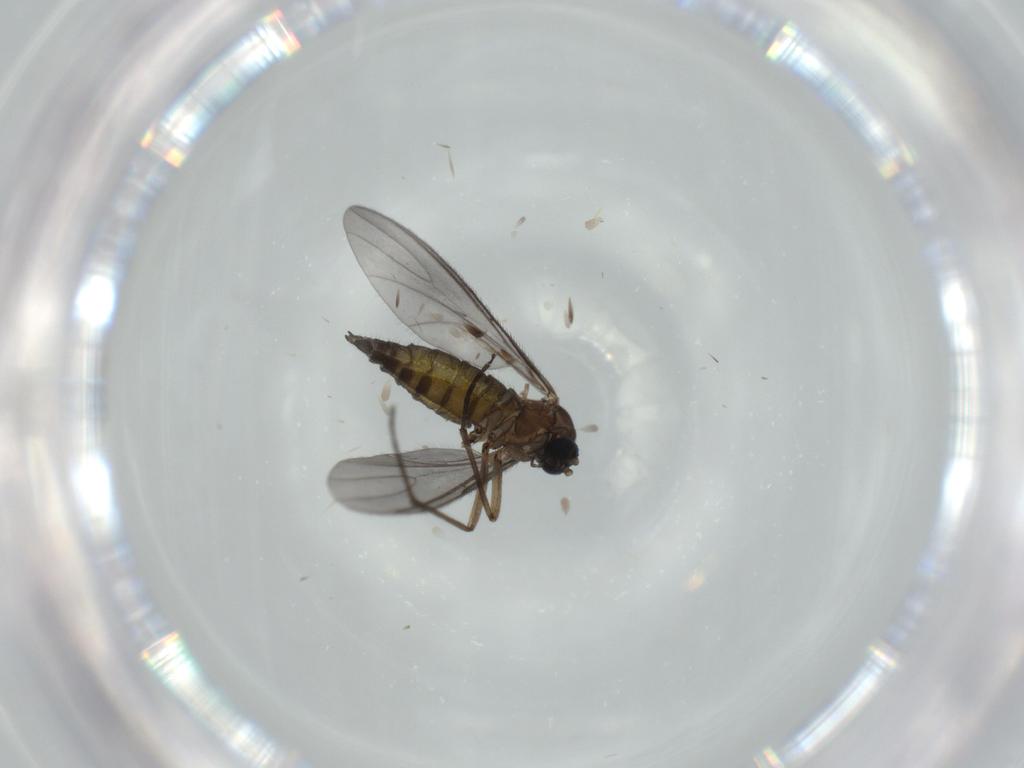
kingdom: Animalia
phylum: Arthropoda
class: Insecta
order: Diptera
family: Sciaridae
